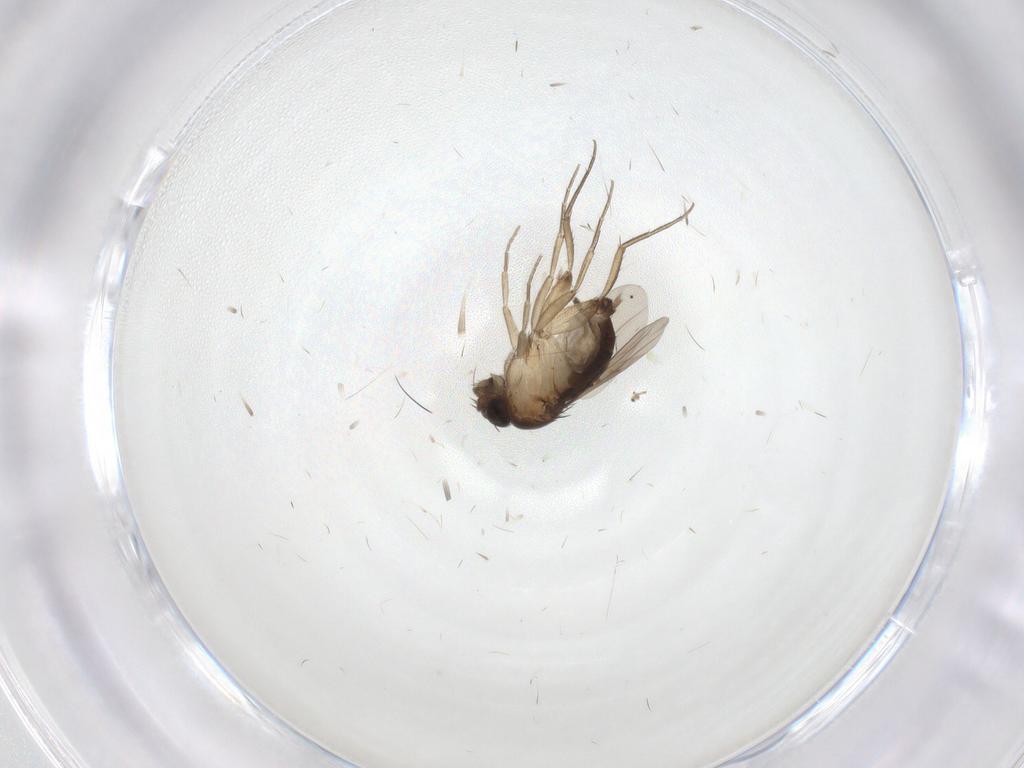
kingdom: Animalia
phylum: Arthropoda
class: Insecta
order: Diptera
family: Phoridae
